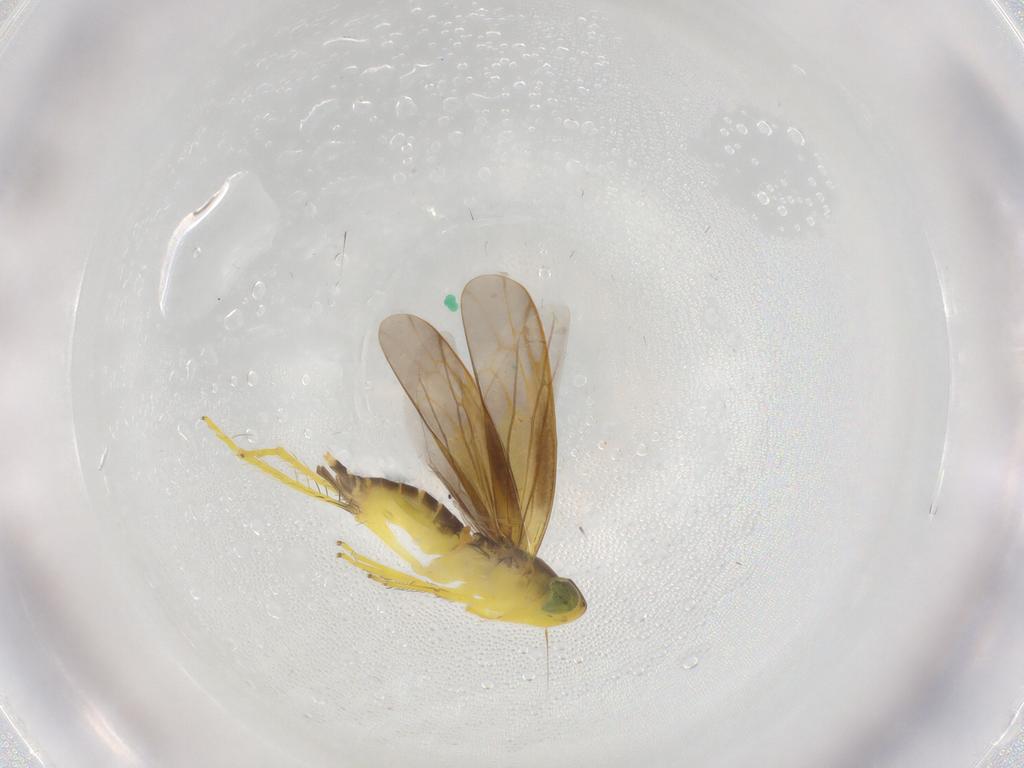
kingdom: Animalia
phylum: Arthropoda
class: Insecta
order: Hemiptera
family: Cicadellidae
